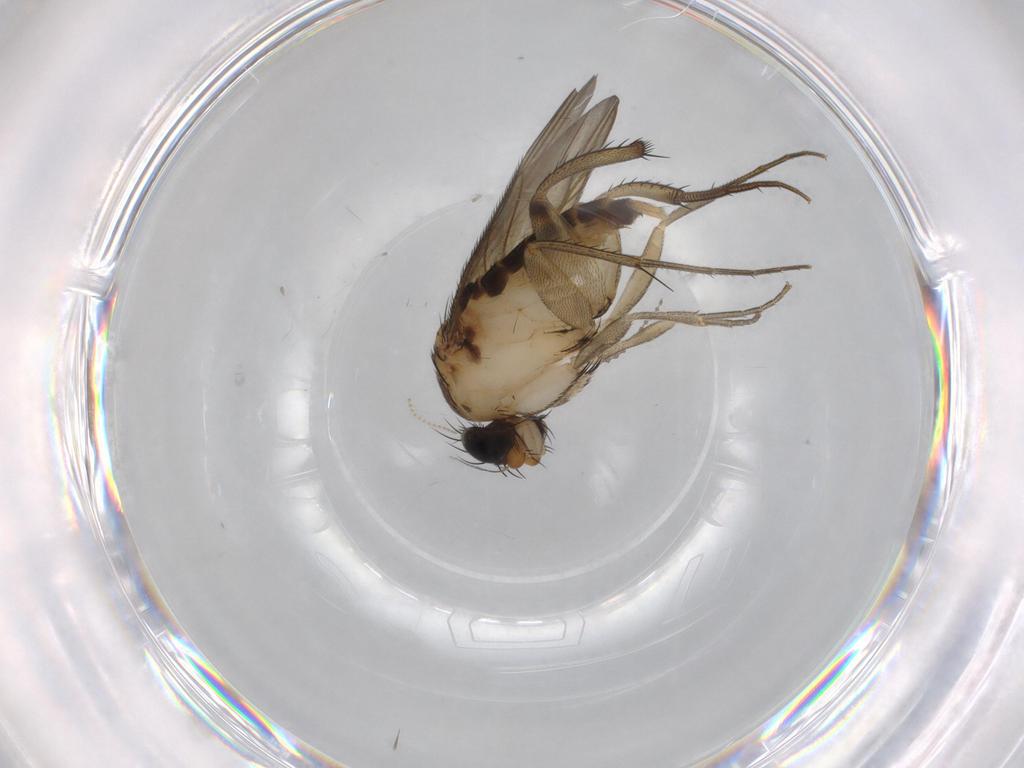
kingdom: Animalia
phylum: Arthropoda
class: Insecta
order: Diptera
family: Cecidomyiidae
